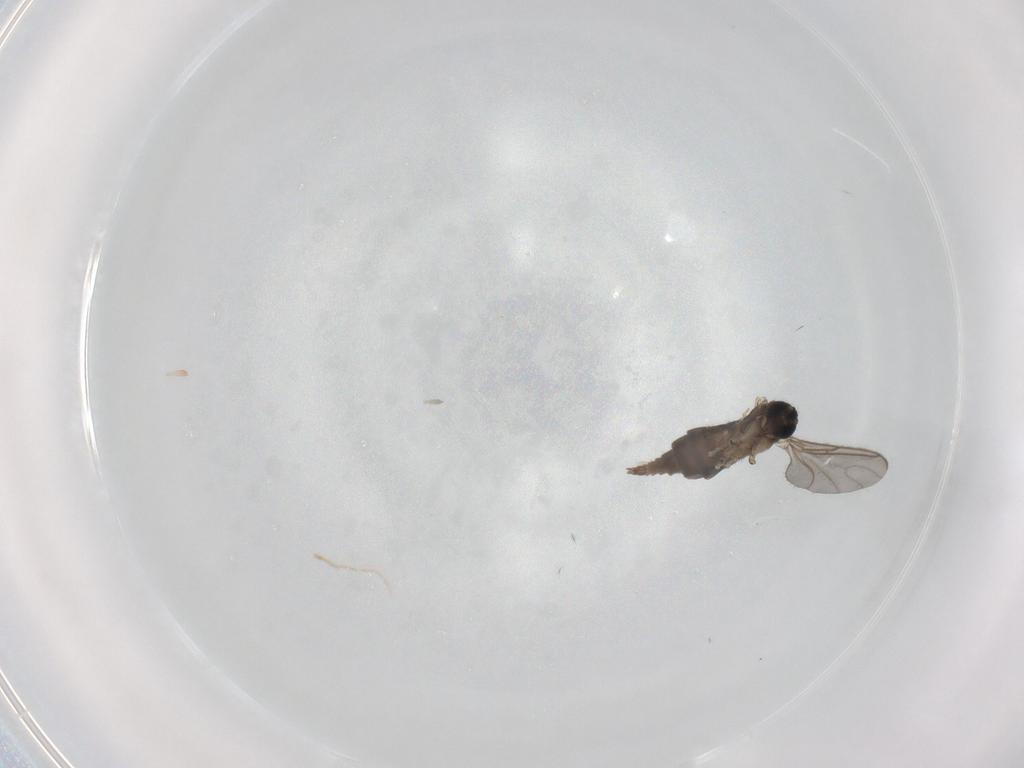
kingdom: Animalia
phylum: Arthropoda
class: Insecta
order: Diptera
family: Sciaridae
